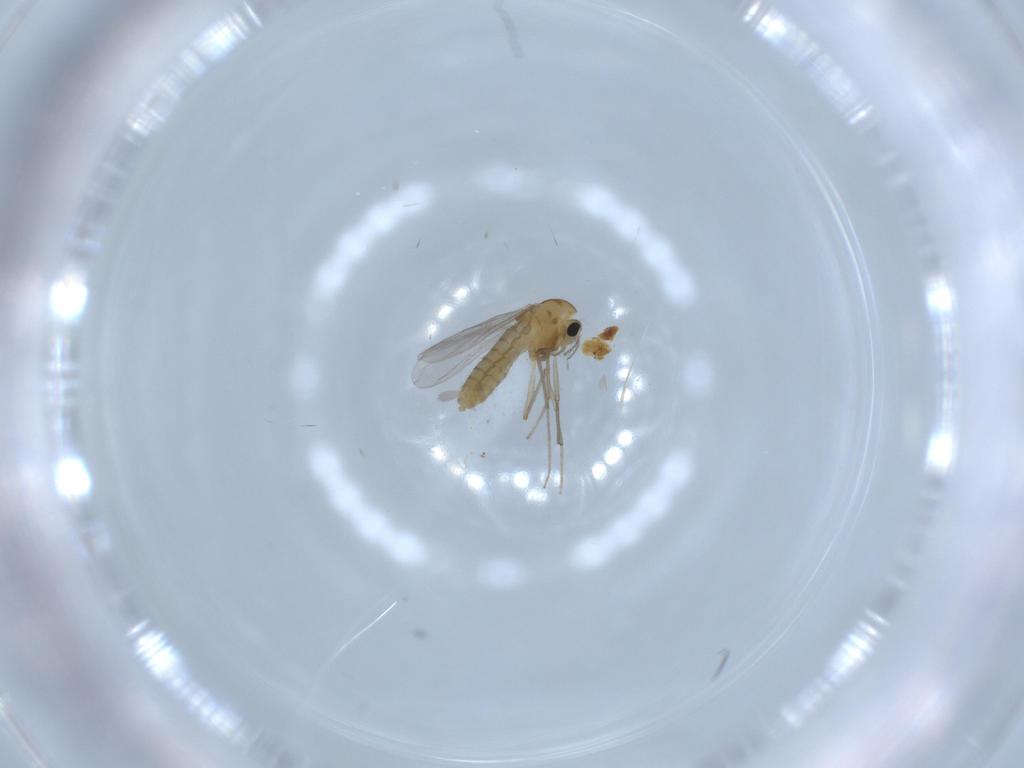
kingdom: Animalia
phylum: Arthropoda
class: Insecta
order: Diptera
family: Chironomidae
